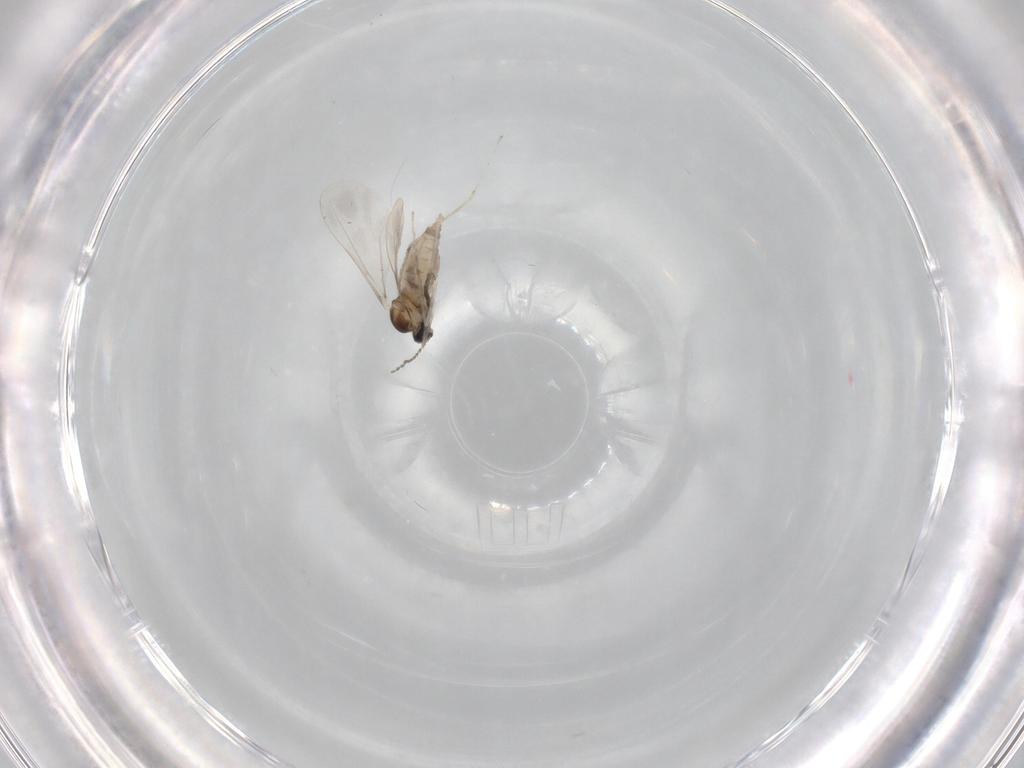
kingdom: Animalia
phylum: Arthropoda
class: Insecta
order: Diptera
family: Cecidomyiidae
